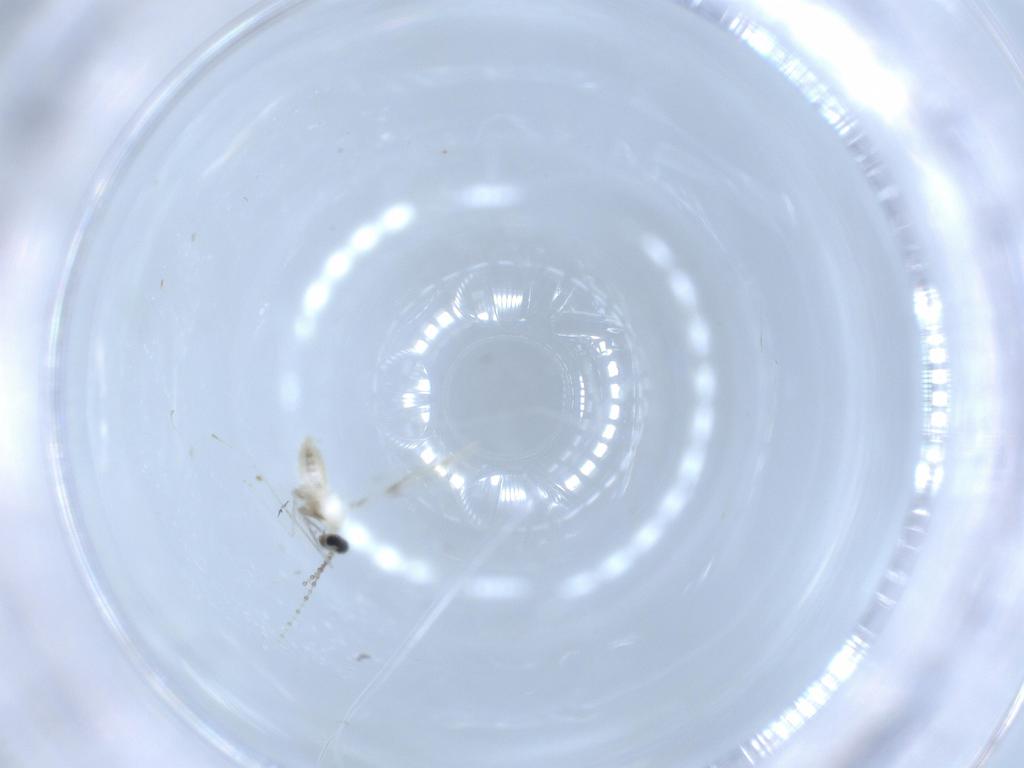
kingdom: Animalia
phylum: Arthropoda
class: Insecta
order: Diptera
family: Cecidomyiidae
